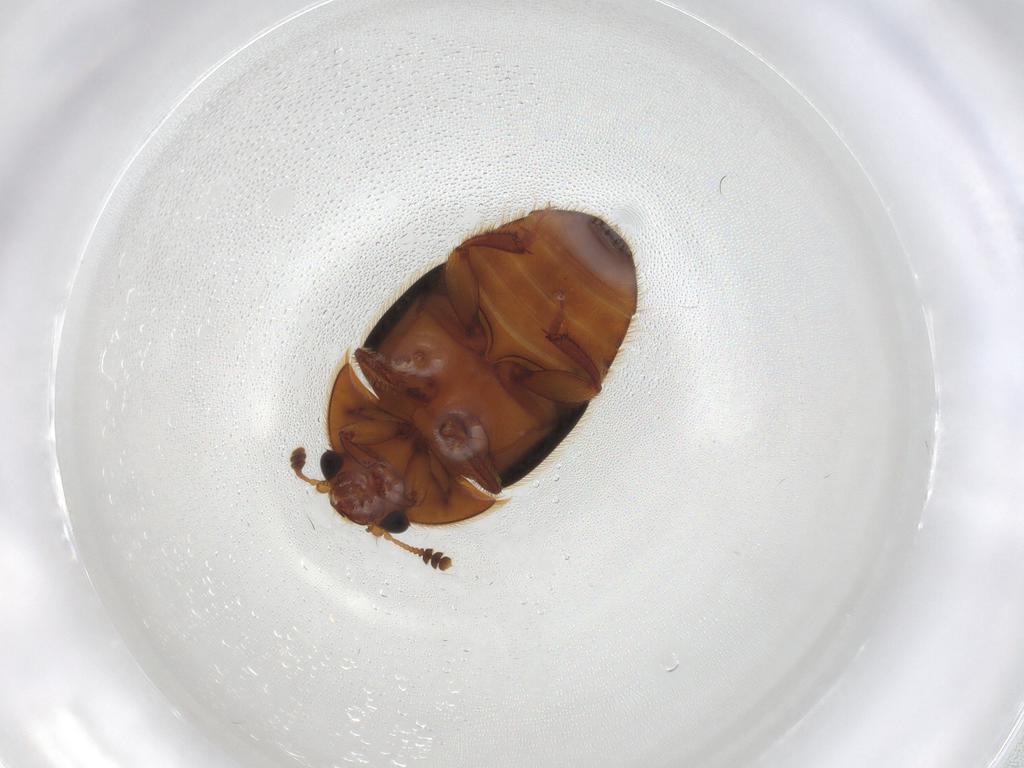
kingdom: Animalia
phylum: Arthropoda
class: Insecta
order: Coleoptera
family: Nitidulidae
